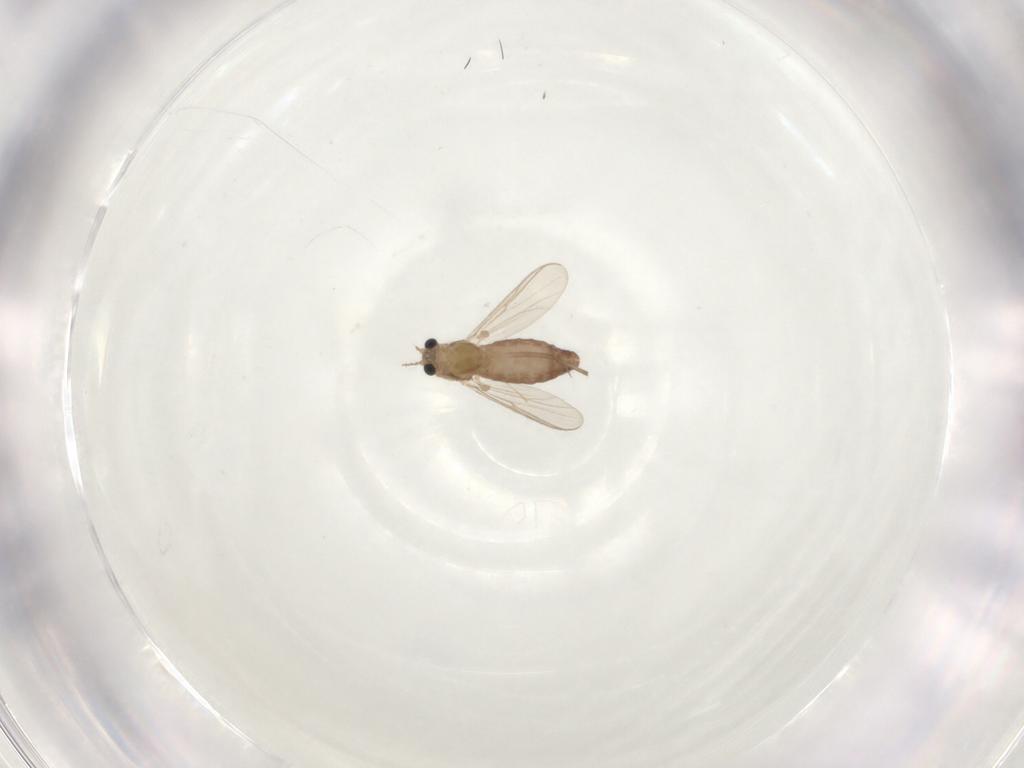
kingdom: Animalia
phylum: Arthropoda
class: Insecta
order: Diptera
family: Chironomidae
